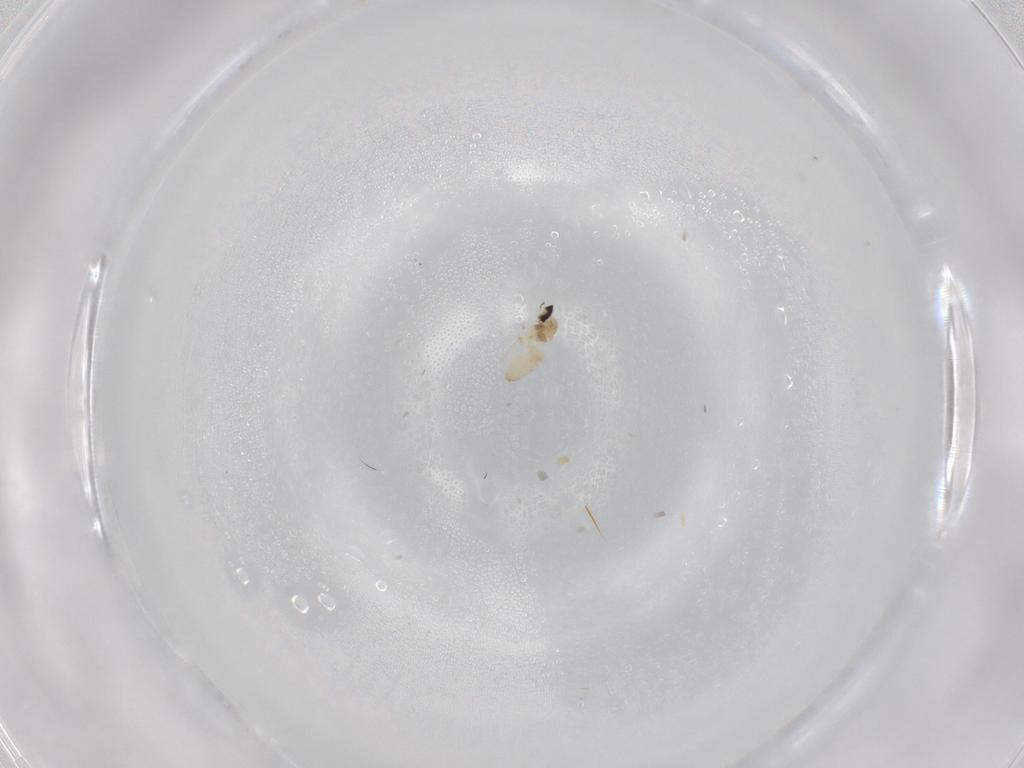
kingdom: Animalia
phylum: Arthropoda
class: Insecta
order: Diptera
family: Cecidomyiidae
